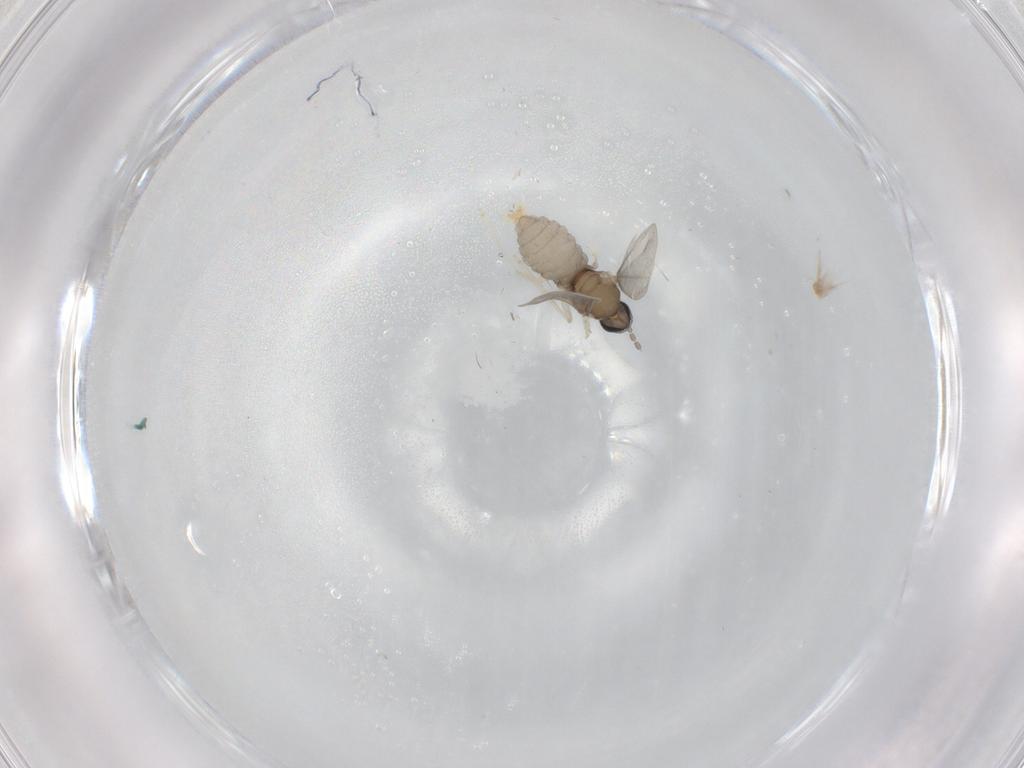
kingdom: Animalia
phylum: Arthropoda
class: Insecta
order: Diptera
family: Cecidomyiidae
